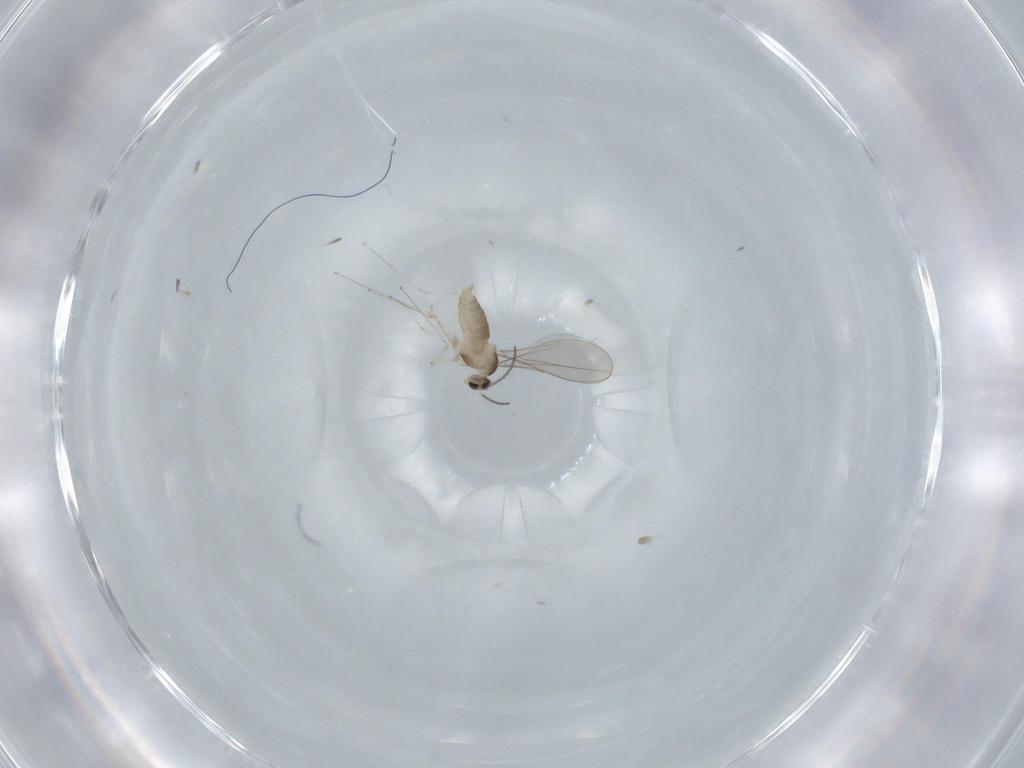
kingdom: Animalia
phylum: Arthropoda
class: Insecta
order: Diptera
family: Cecidomyiidae
